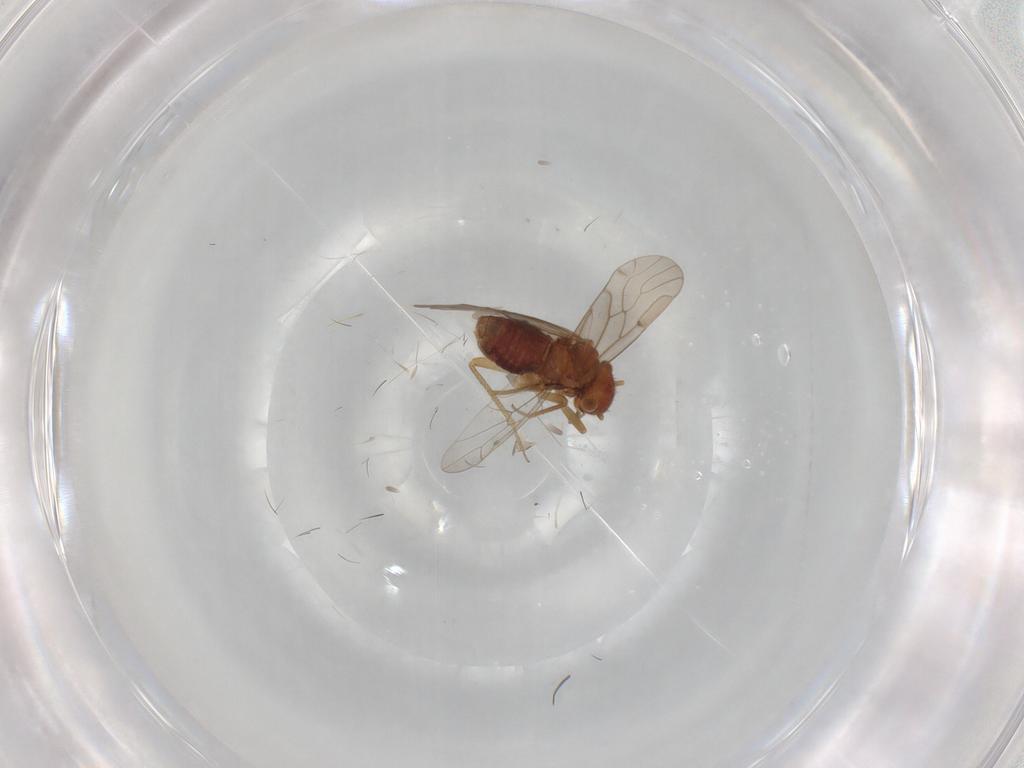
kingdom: Animalia
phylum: Arthropoda
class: Insecta
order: Psocodea
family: Ectopsocidae
